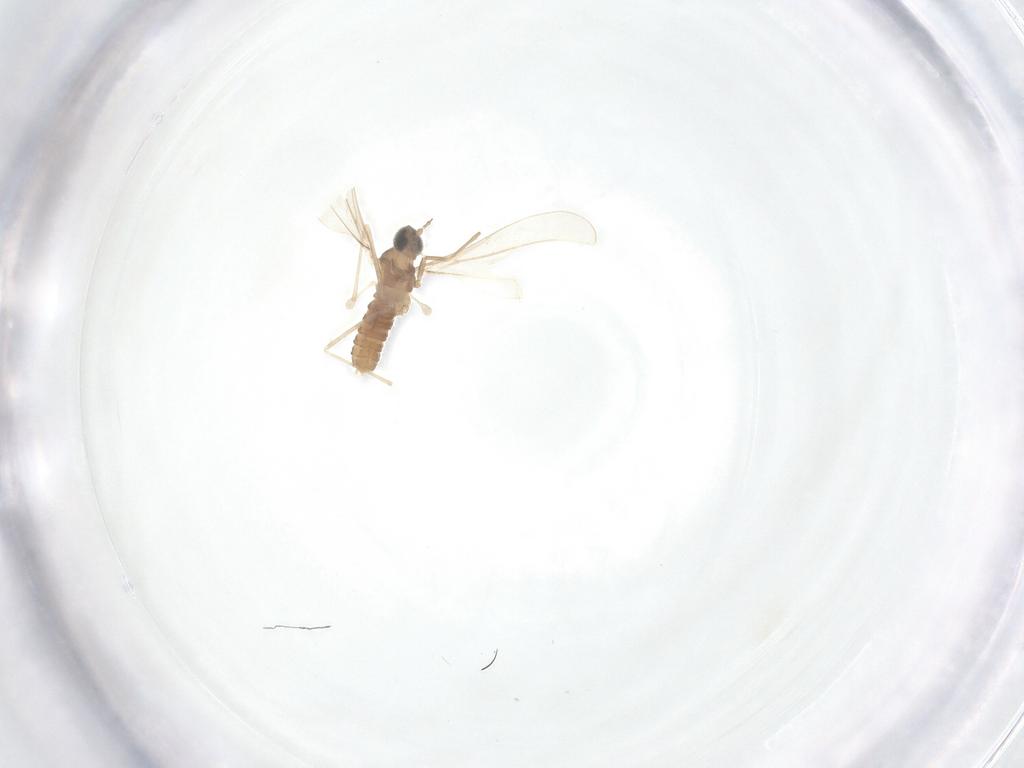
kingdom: Animalia
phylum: Arthropoda
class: Insecta
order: Diptera
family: Cecidomyiidae
